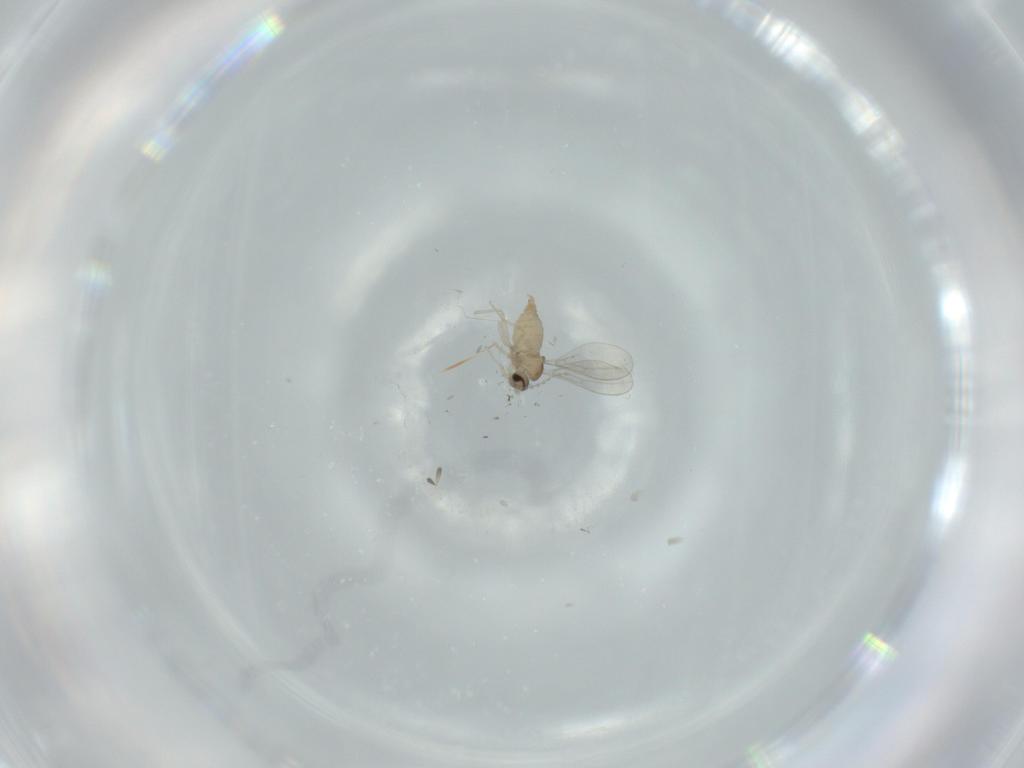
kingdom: Animalia
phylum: Arthropoda
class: Insecta
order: Diptera
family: Cecidomyiidae
